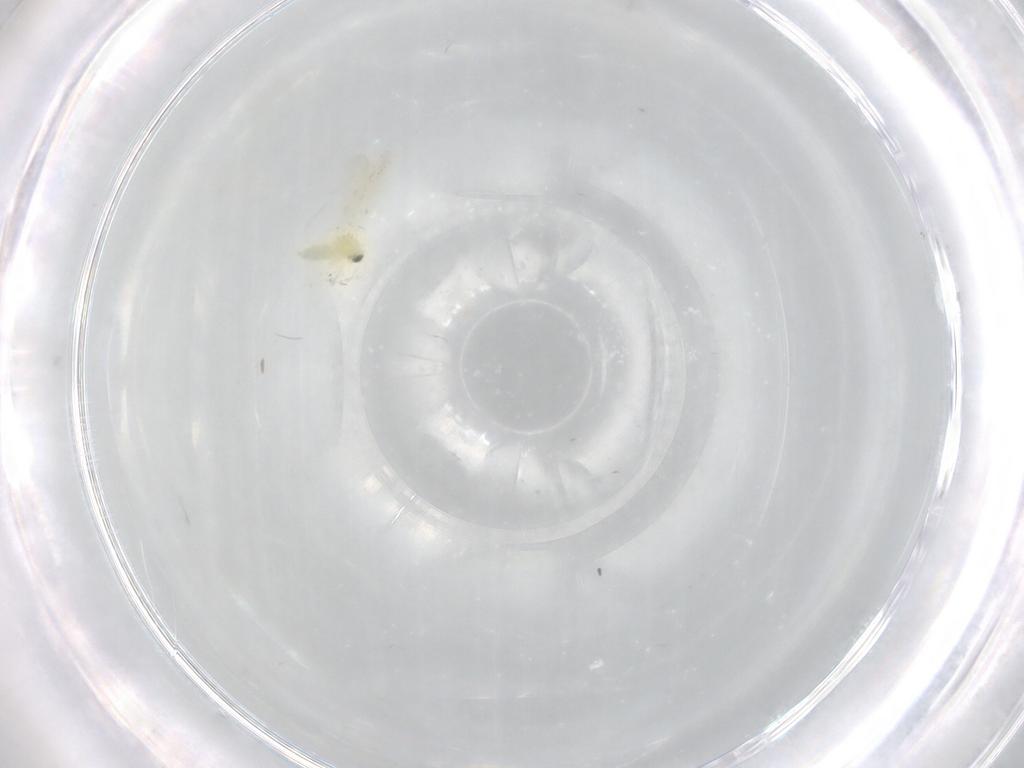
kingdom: Animalia
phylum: Arthropoda
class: Insecta
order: Hemiptera
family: Aleyrodidae
